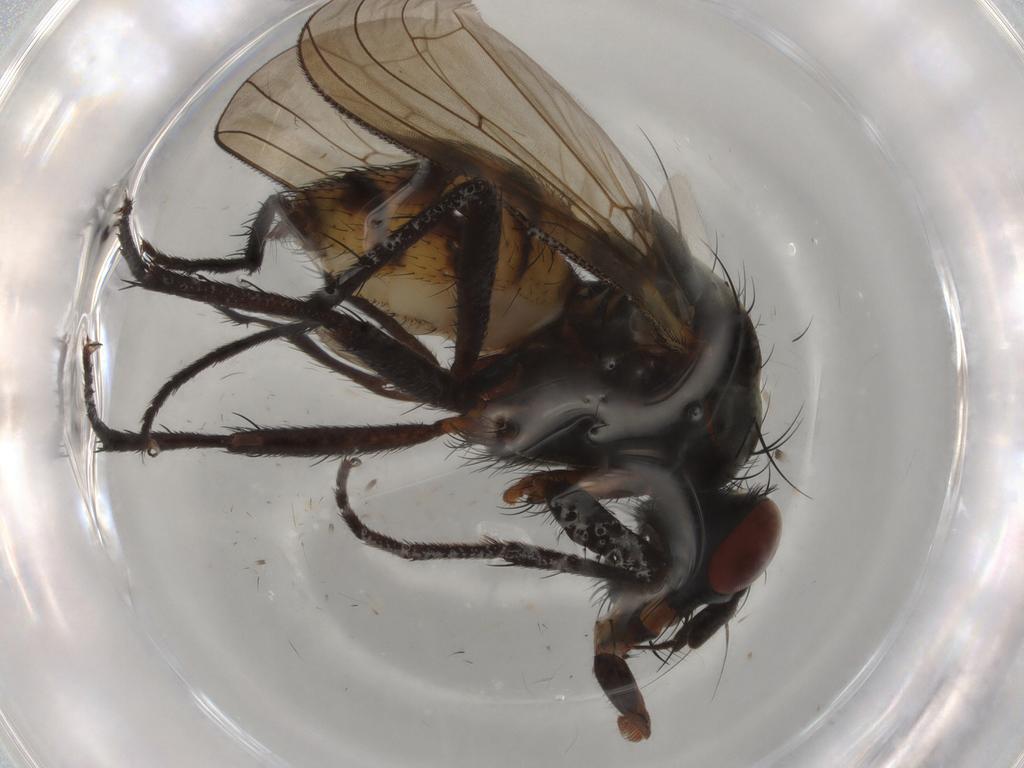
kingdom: Animalia
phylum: Arthropoda
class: Insecta
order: Diptera
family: Anthomyiidae
